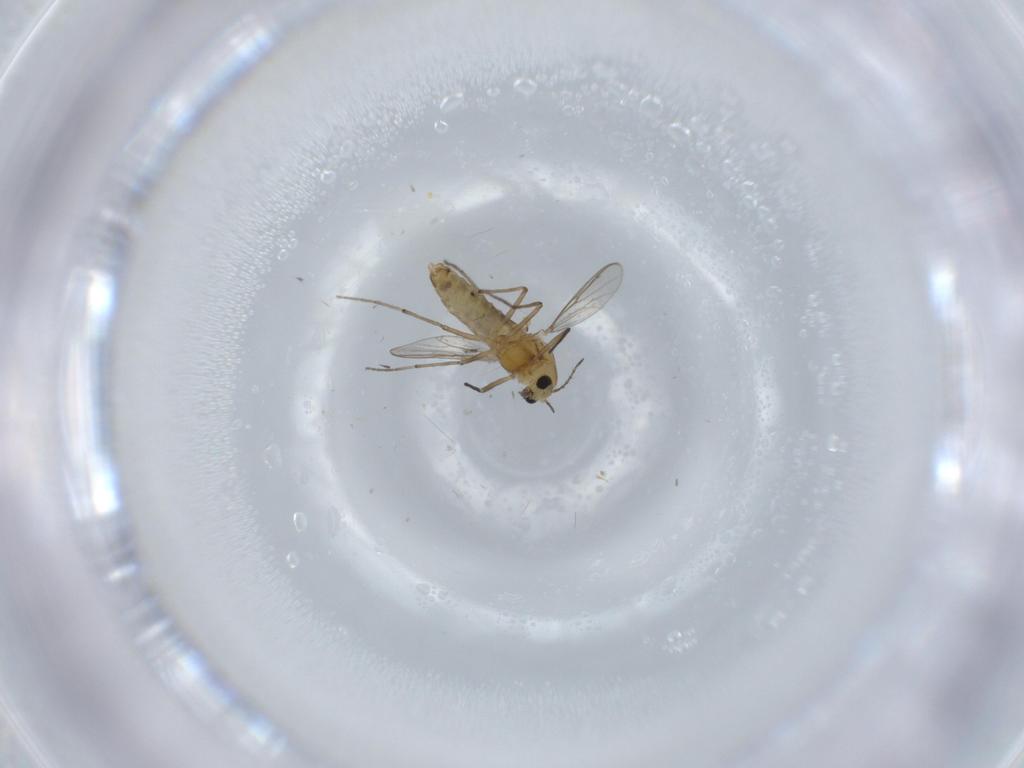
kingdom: Animalia
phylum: Arthropoda
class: Insecta
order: Diptera
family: Chironomidae
